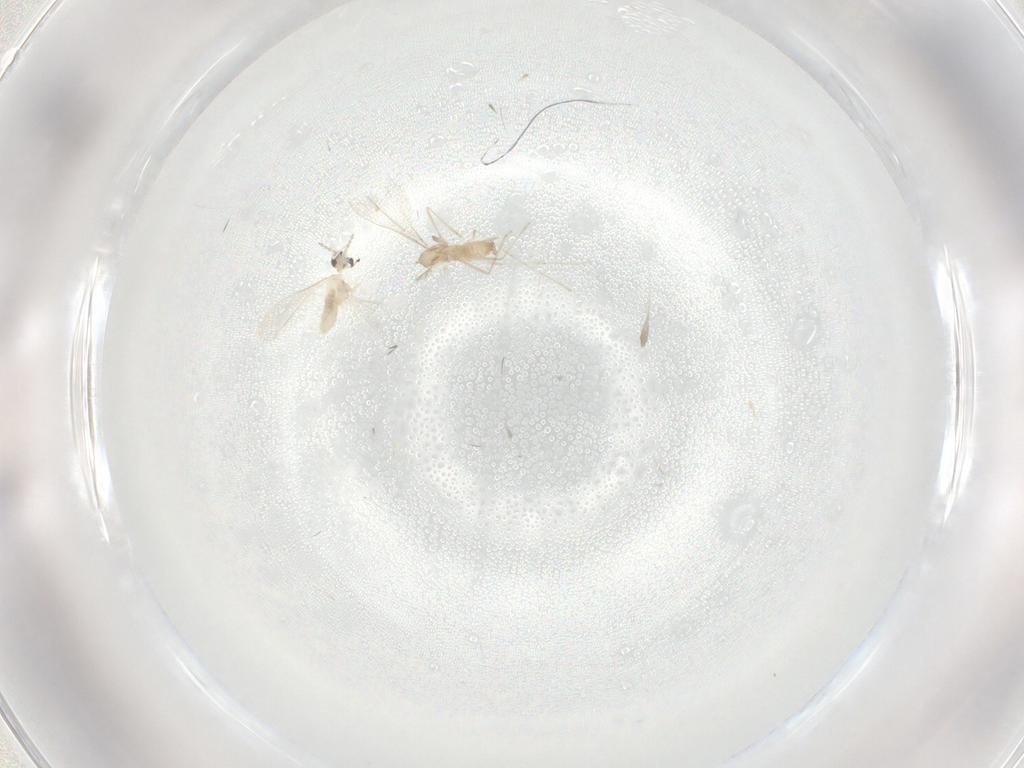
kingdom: Animalia
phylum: Arthropoda
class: Insecta
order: Diptera
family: Cecidomyiidae
